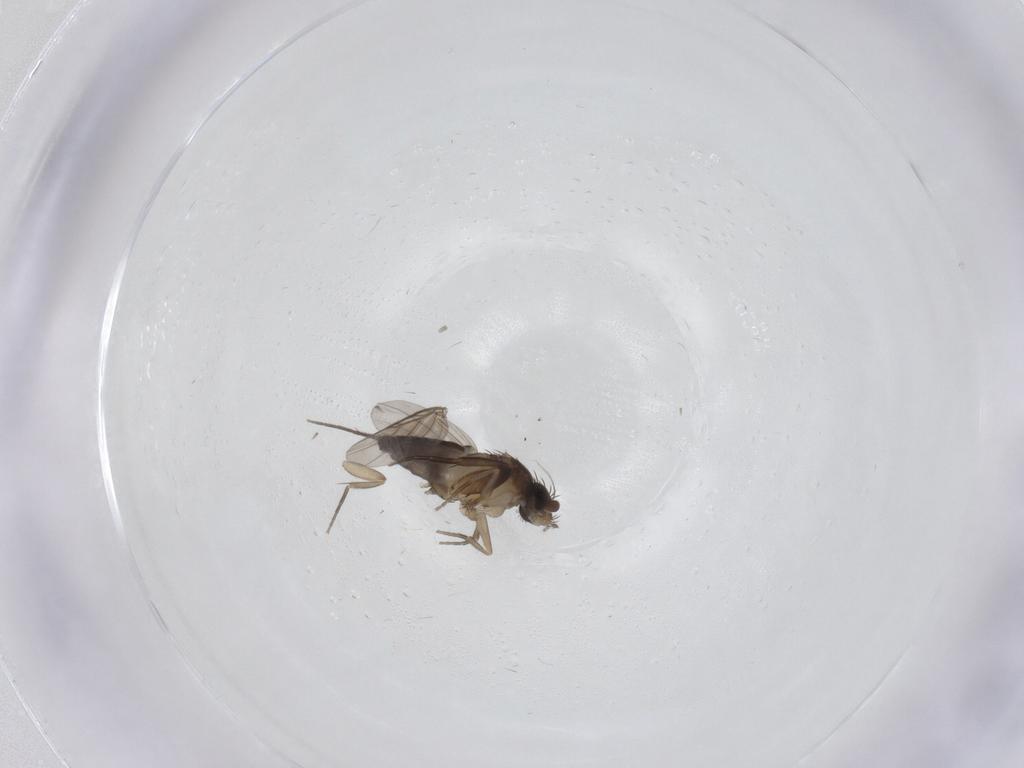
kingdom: Animalia
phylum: Arthropoda
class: Insecta
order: Diptera
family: Phoridae
